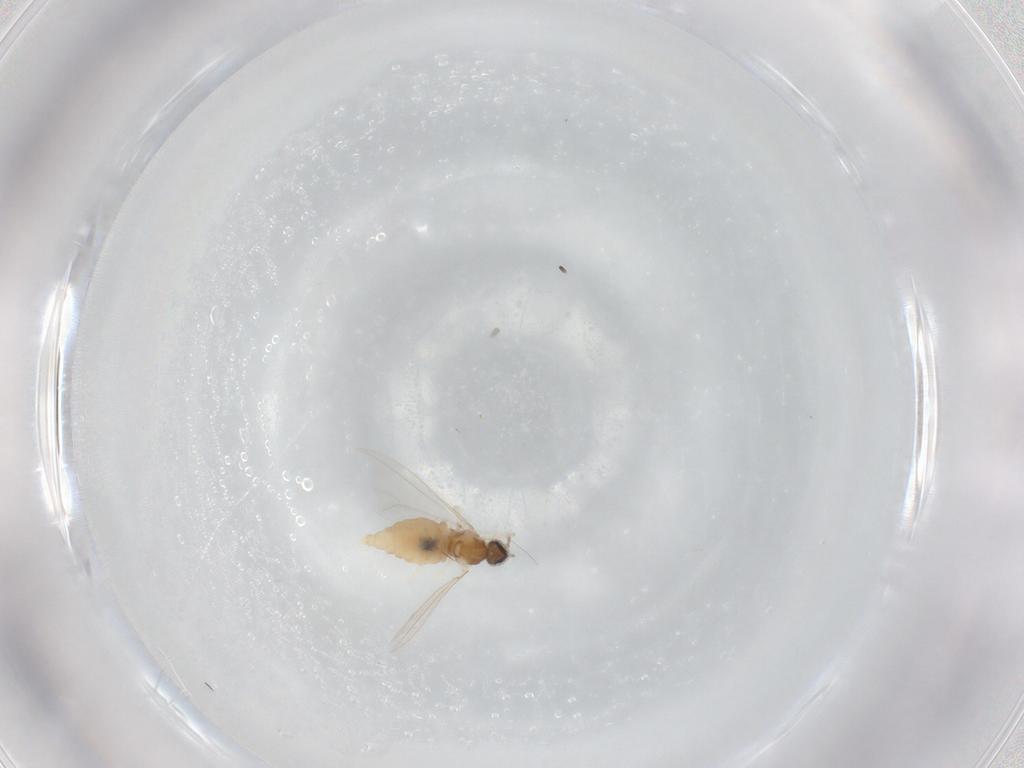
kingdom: Animalia
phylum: Arthropoda
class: Insecta
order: Diptera
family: Cecidomyiidae
